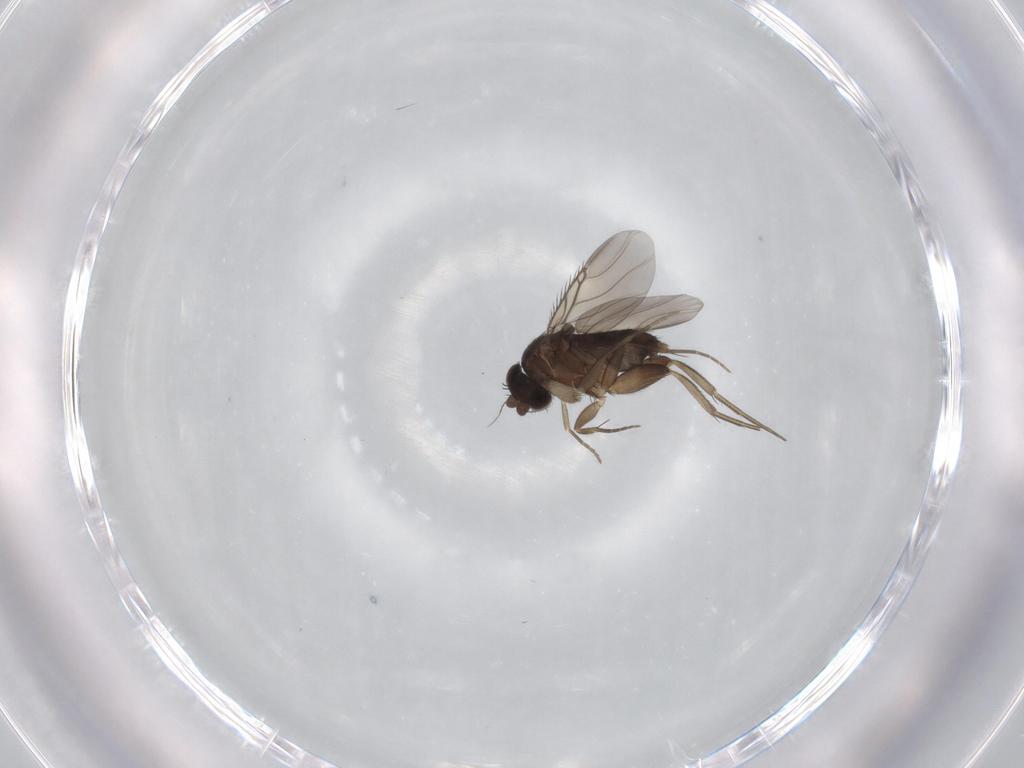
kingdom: Animalia
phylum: Arthropoda
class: Insecta
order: Diptera
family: Phoridae
